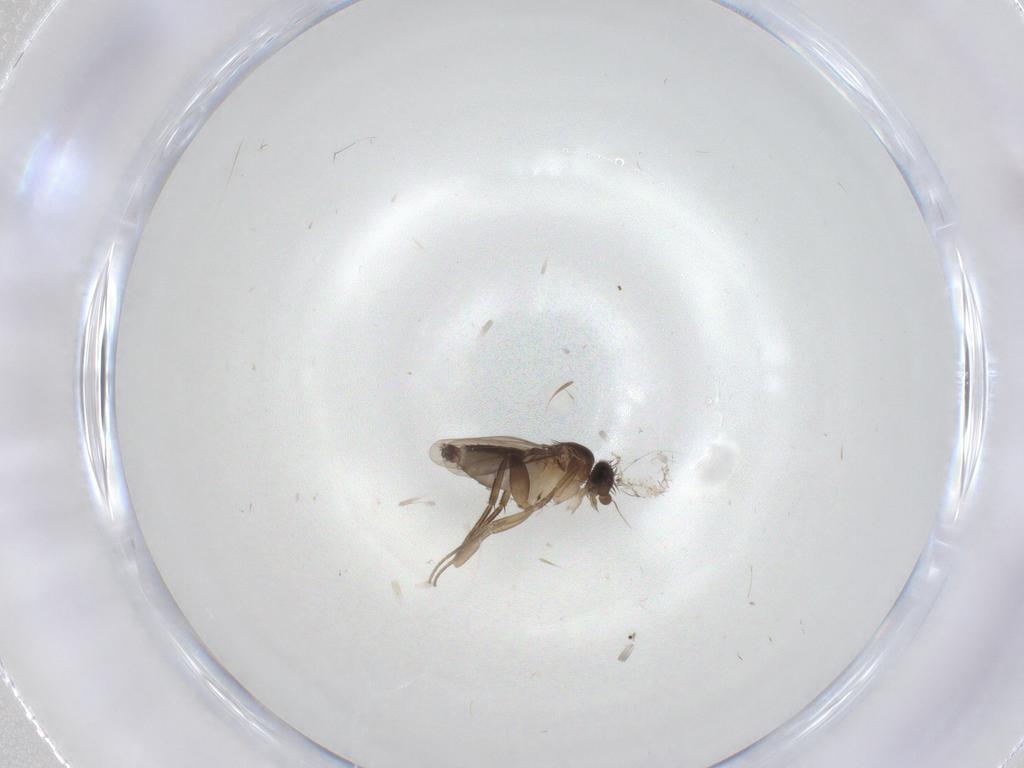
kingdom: Animalia
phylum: Arthropoda
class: Insecta
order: Diptera
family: Phoridae
